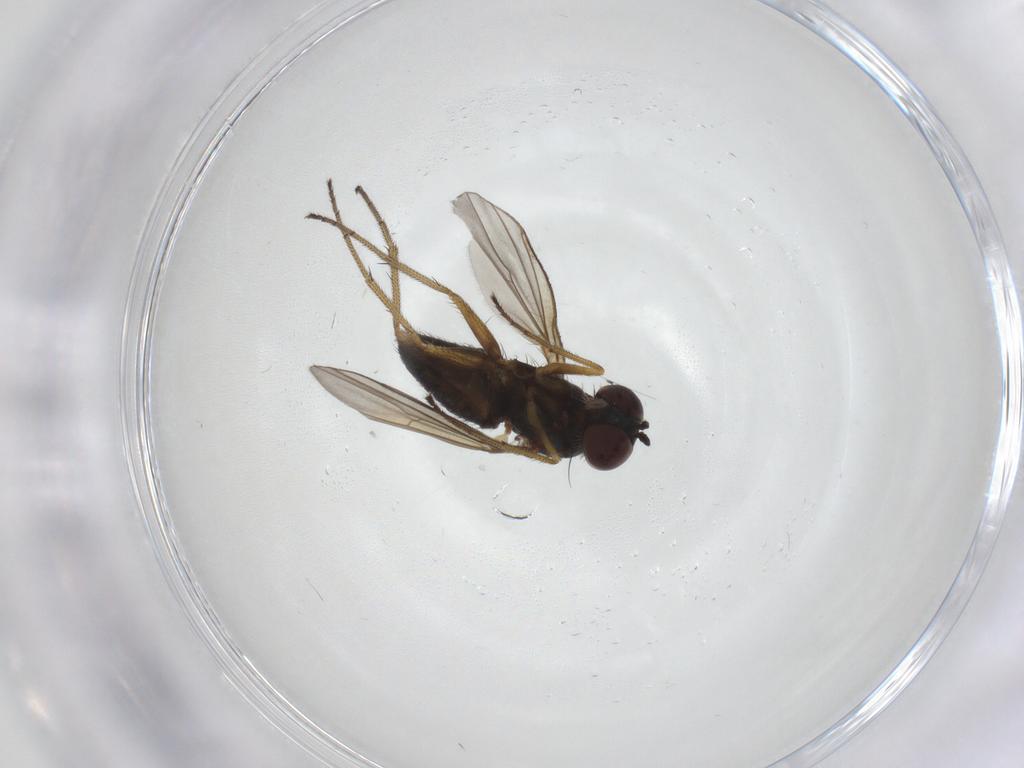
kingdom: Animalia
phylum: Arthropoda
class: Insecta
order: Diptera
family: Dolichopodidae
